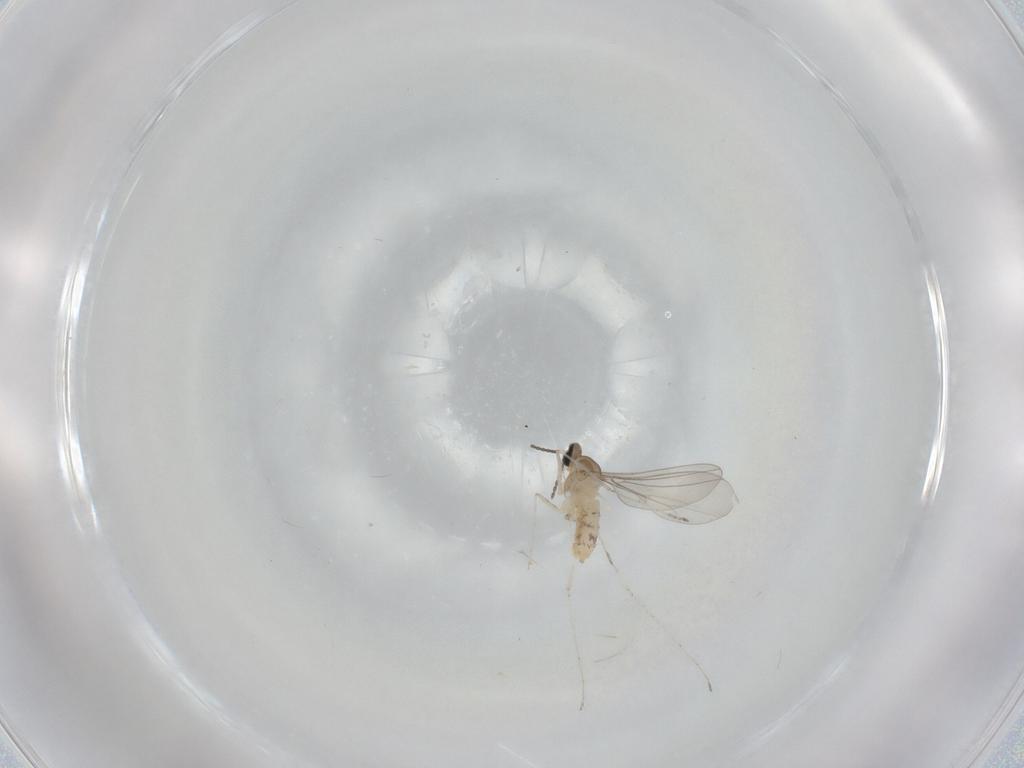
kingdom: Animalia
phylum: Arthropoda
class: Insecta
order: Diptera
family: Cecidomyiidae
